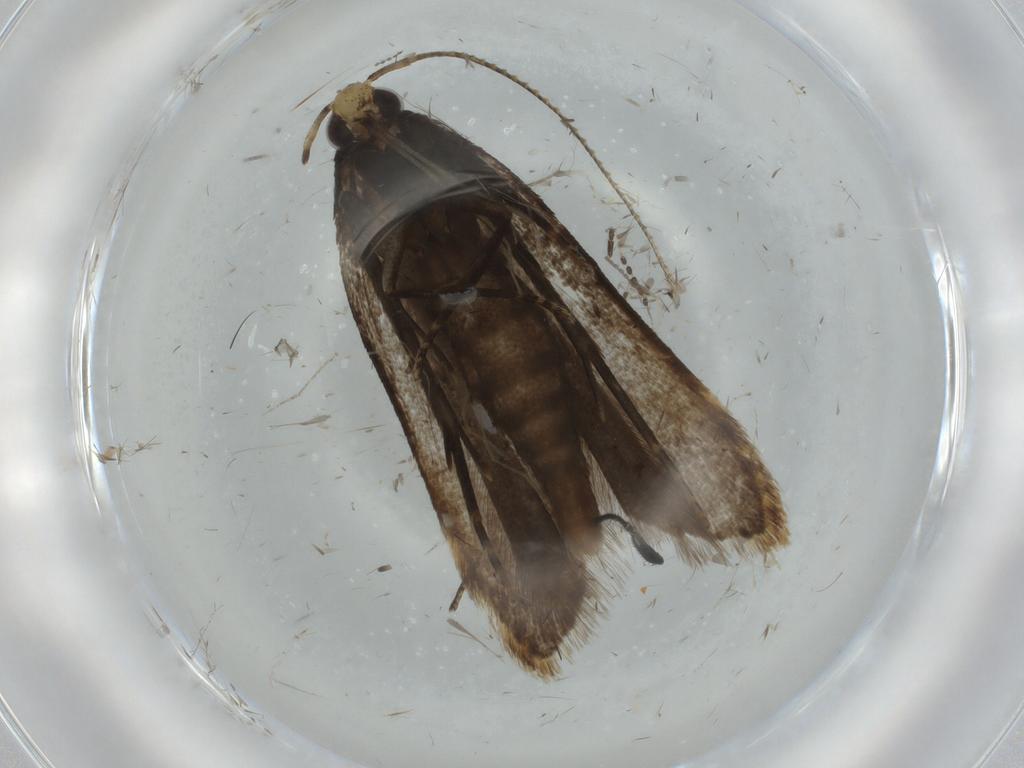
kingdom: Animalia
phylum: Arthropoda
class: Insecta
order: Lepidoptera
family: Gelechiidae
